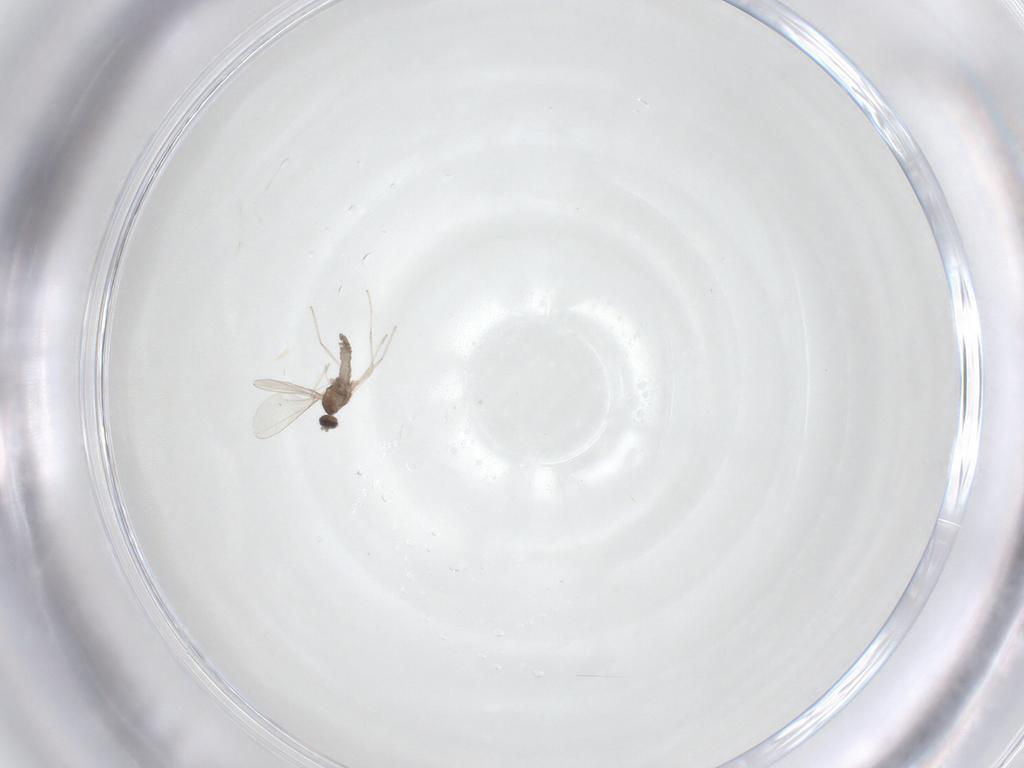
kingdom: Animalia
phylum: Arthropoda
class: Insecta
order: Diptera
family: Cecidomyiidae
